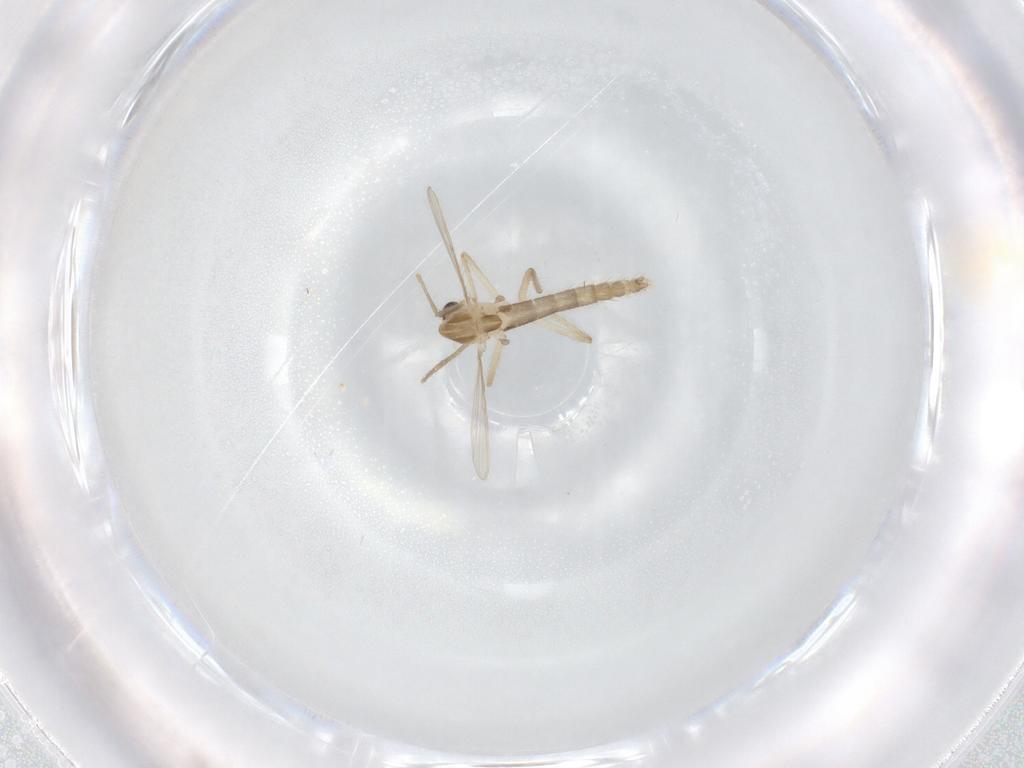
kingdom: Animalia
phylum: Arthropoda
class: Insecta
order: Diptera
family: Chironomidae
